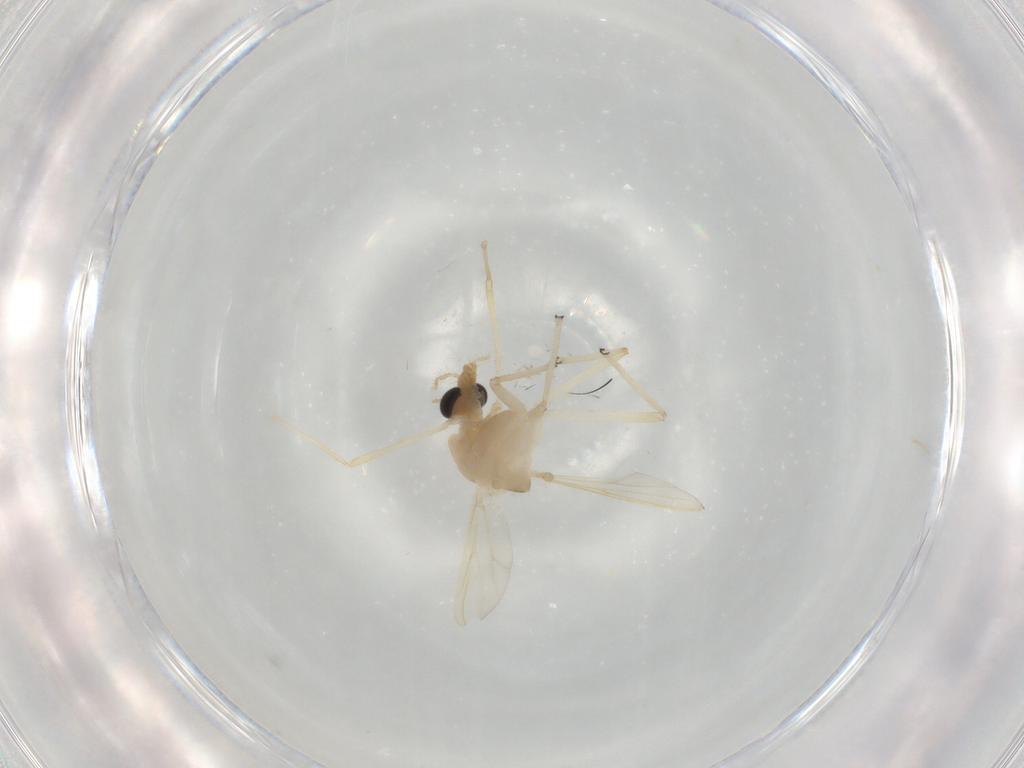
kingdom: Animalia
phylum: Arthropoda
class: Insecta
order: Diptera
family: Chironomidae
